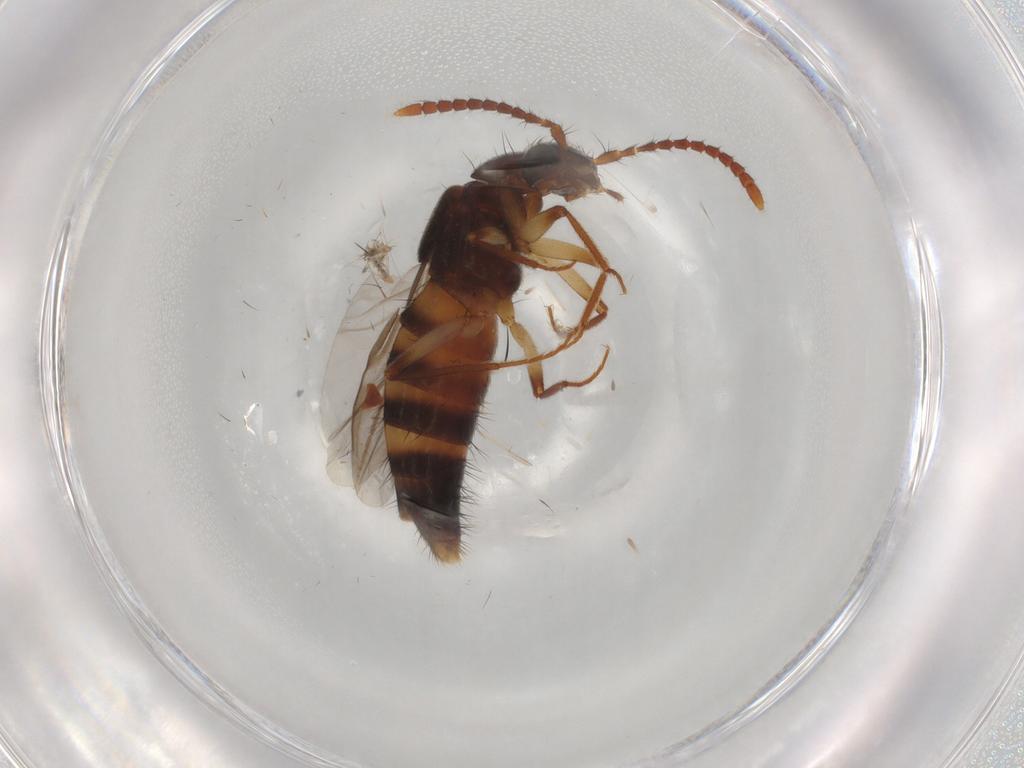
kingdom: Animalia
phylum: Arthropoda
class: Insecta
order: Coleoptera
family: Staphylinidae
